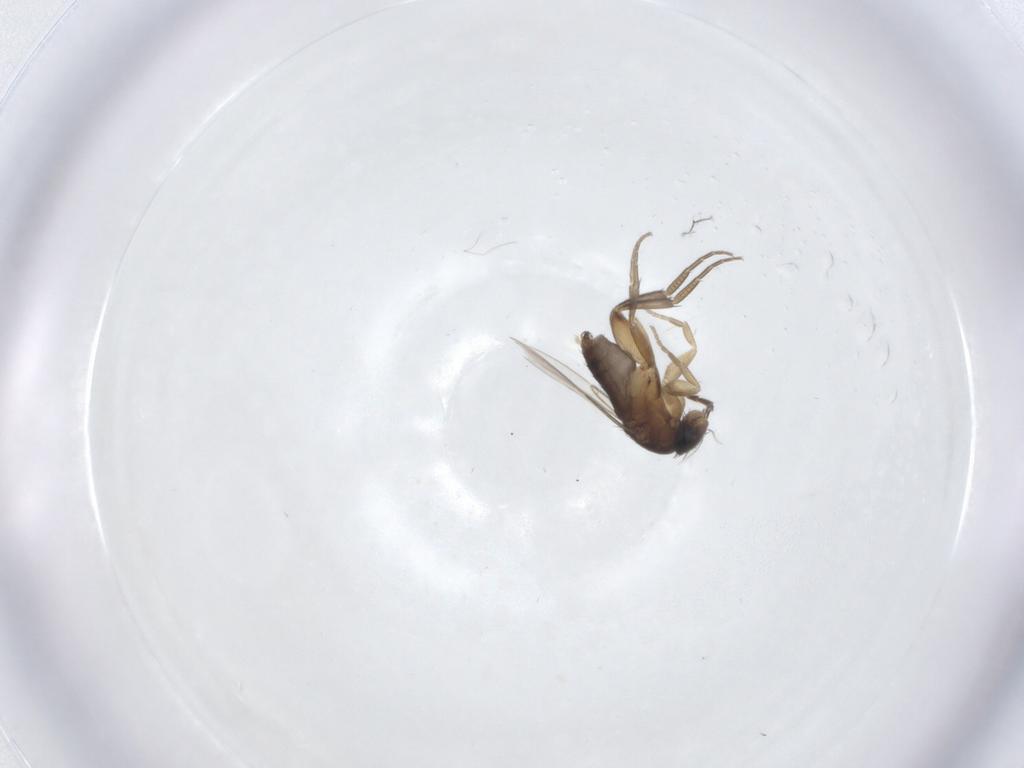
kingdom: Animalia
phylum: Arthropoda
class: Insecta
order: Diptera
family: Phoridae
